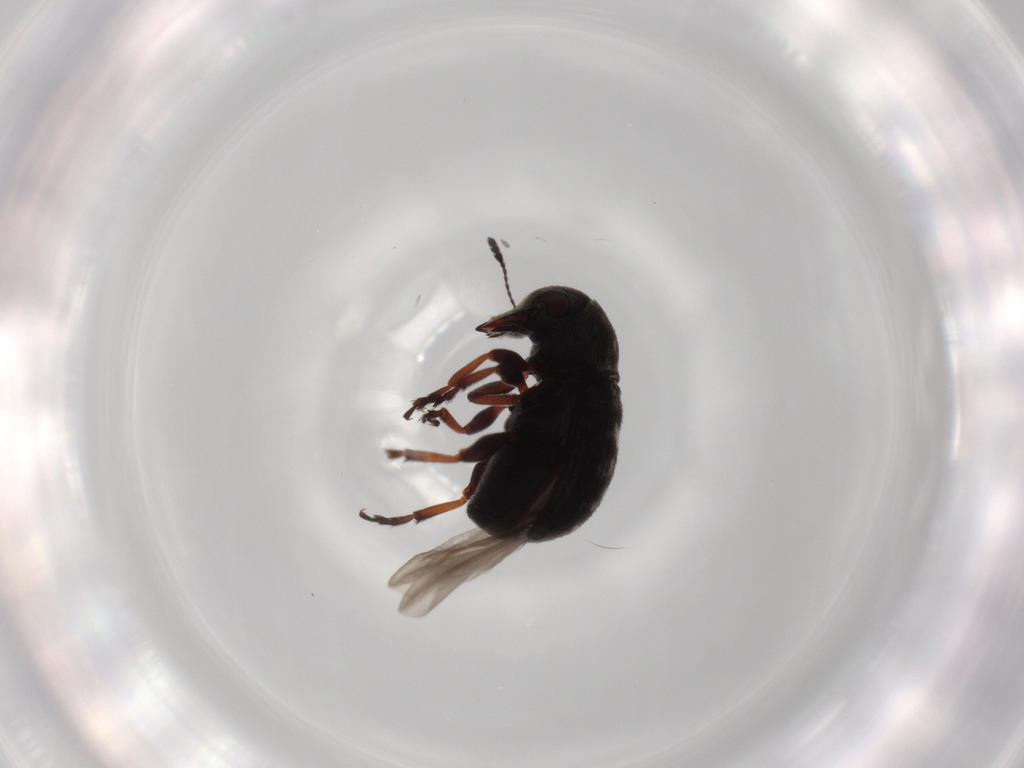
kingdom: Animalia
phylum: Arthropoda
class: Insecta
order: Coleoptera
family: Anthribidae
